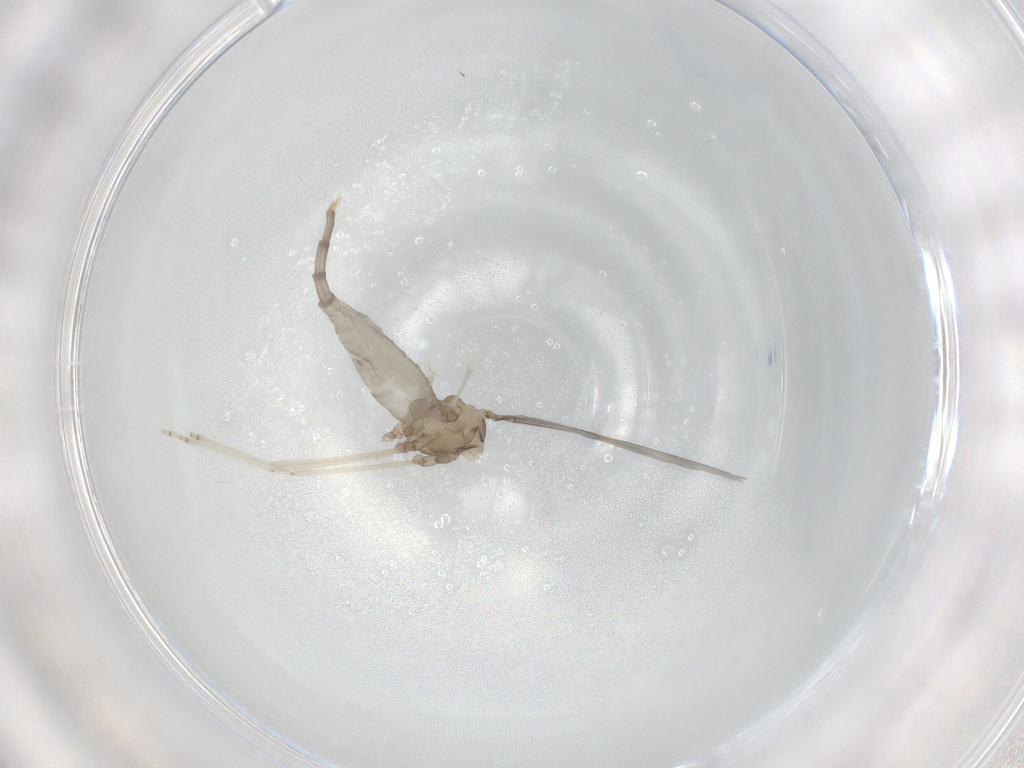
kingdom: Animalia
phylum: Arthropoda
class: Insecta
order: Diptera
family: Cecidomyiidae
